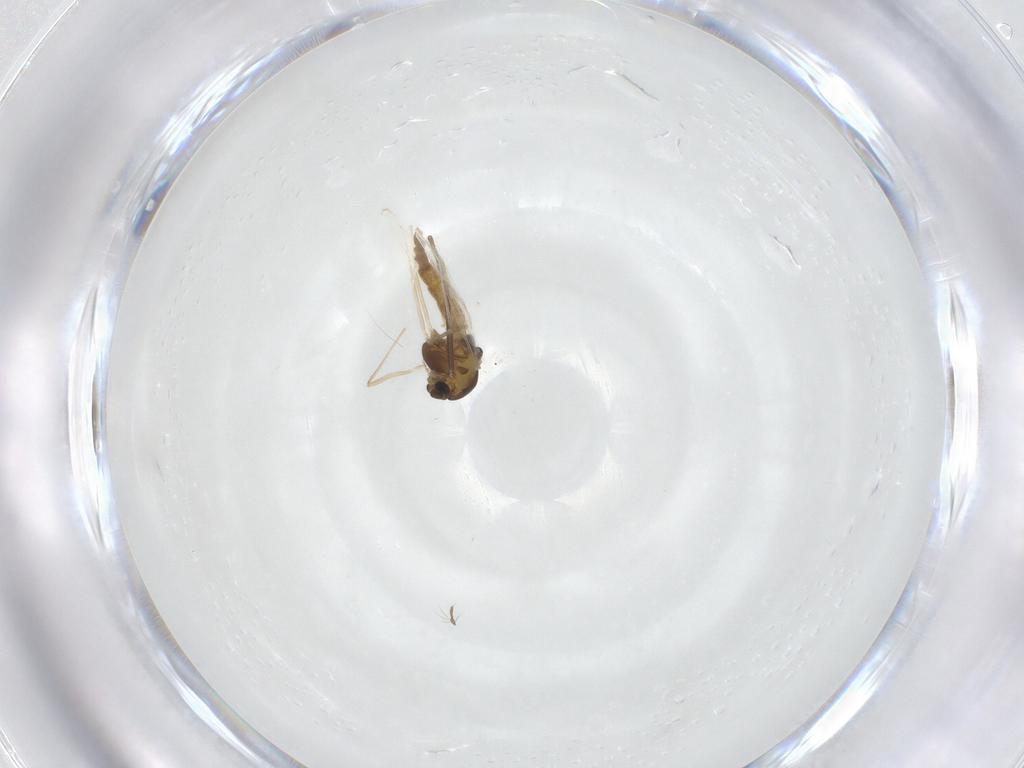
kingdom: Animalia
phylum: Arthropoda
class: Insecta
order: Diptera
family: Chironomidae
